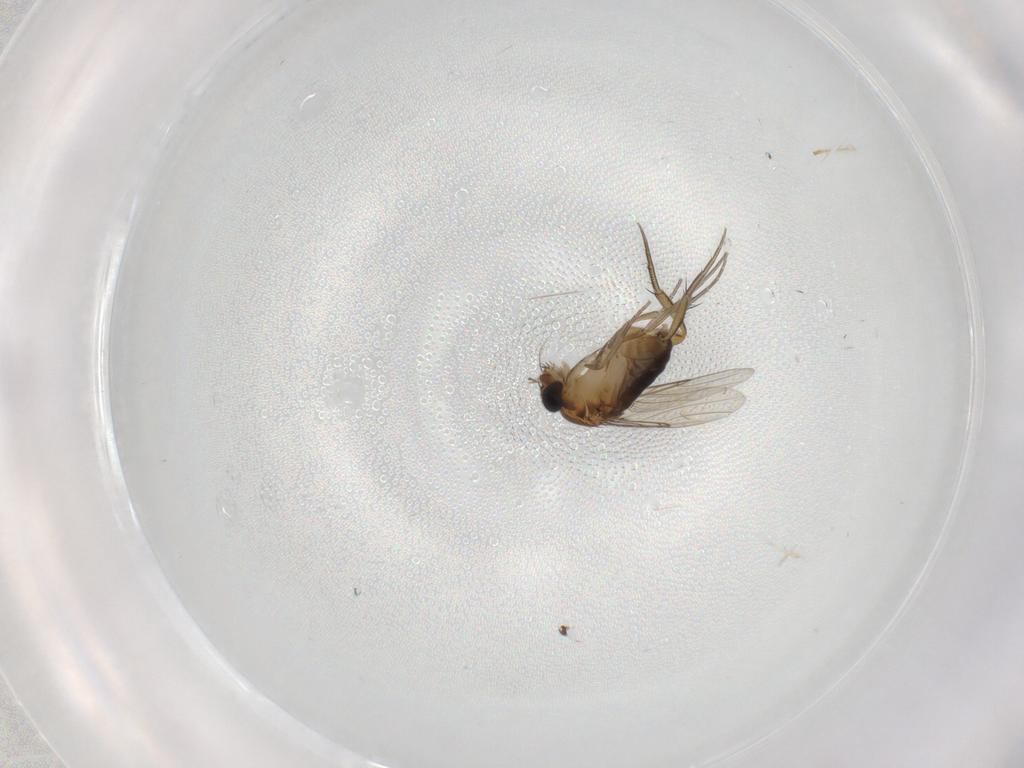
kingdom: Animalia
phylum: Arthropoda
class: Insecta
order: Diptera
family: Phoridae
